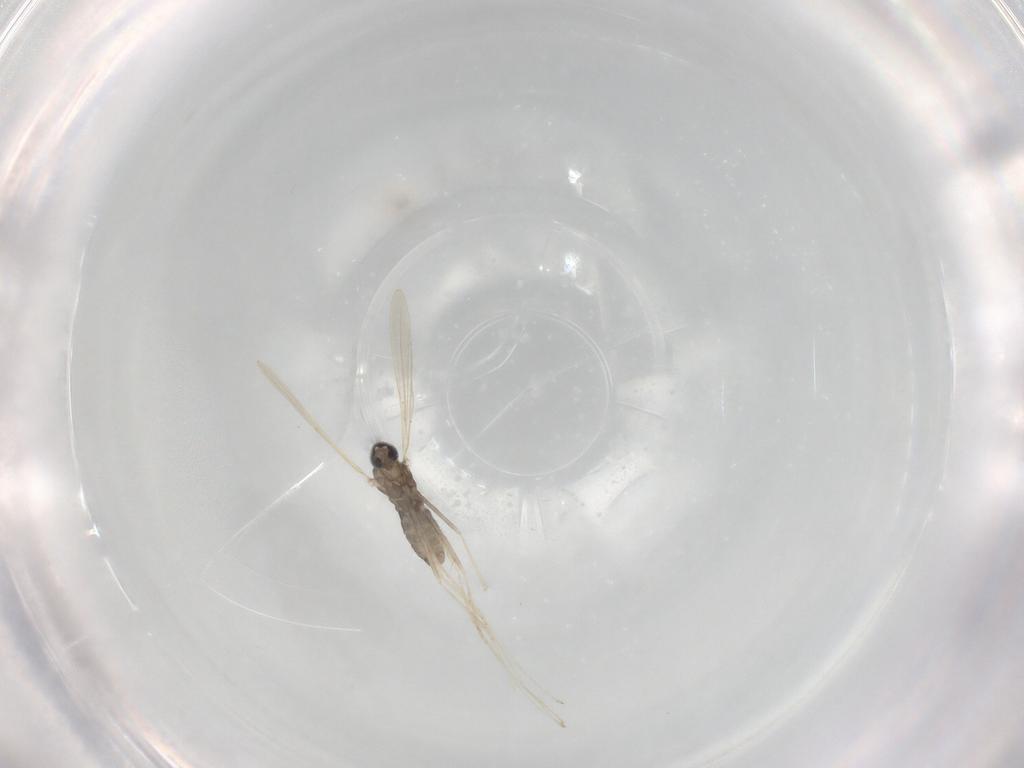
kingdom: Animalia
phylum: Arthropoda
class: Insecta
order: Diptera
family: Cecidomyiidae
